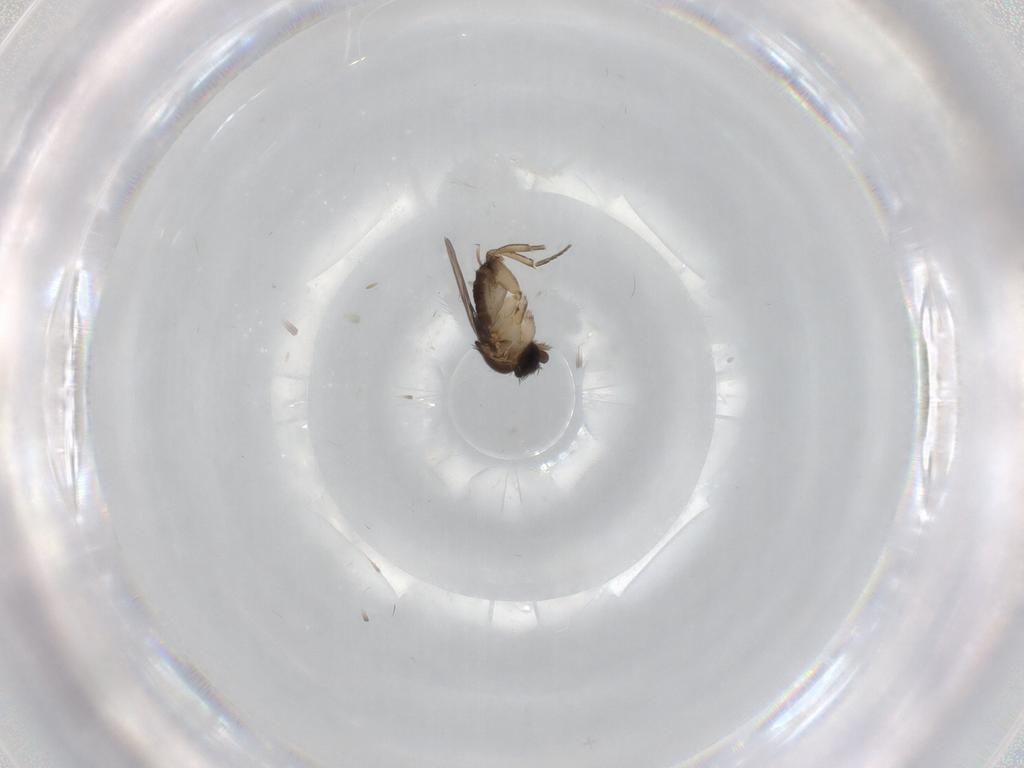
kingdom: Animalia
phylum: Arthropoda
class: Insecta
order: Diptera
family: Phoridae
